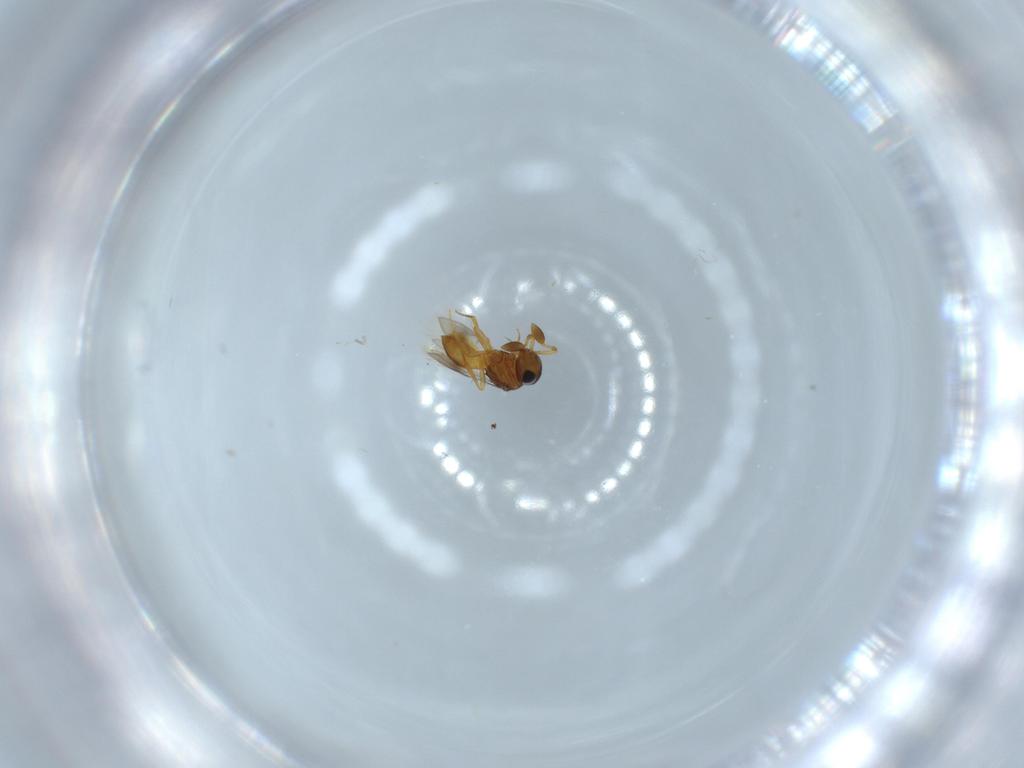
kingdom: Animalia
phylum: Arthropoda
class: Insecta
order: Hymenoptera
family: Scelionidae
